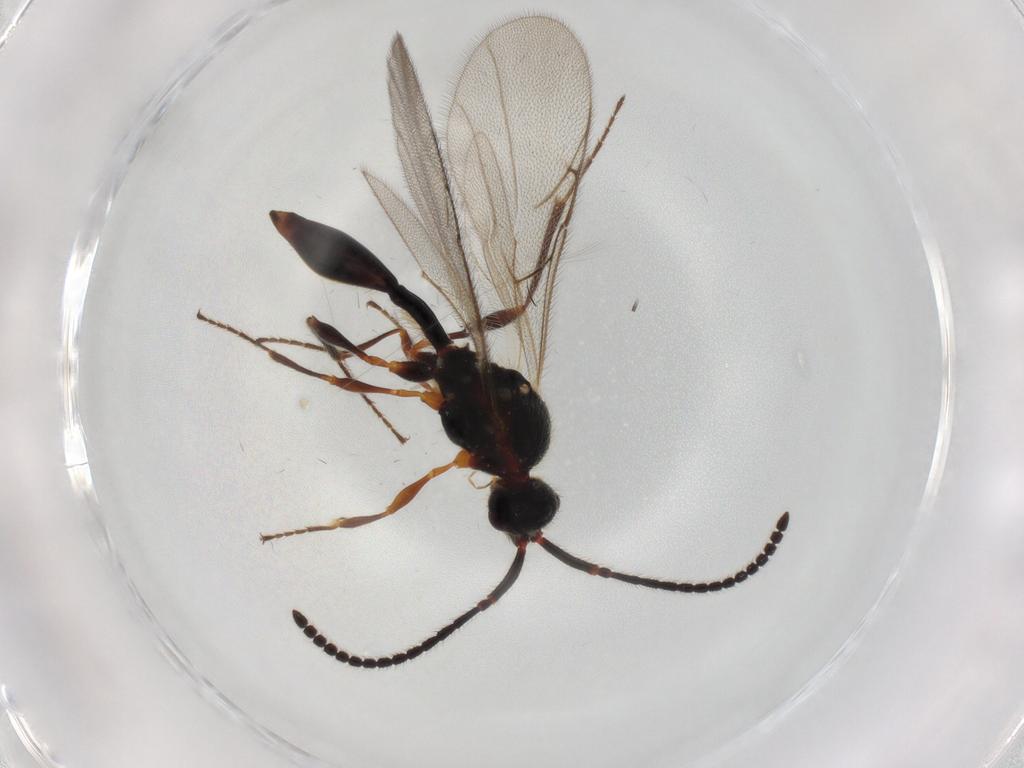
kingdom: Animalia
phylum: Arthropoda
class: Insecta
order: Hymenoptera
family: Diapriidae
